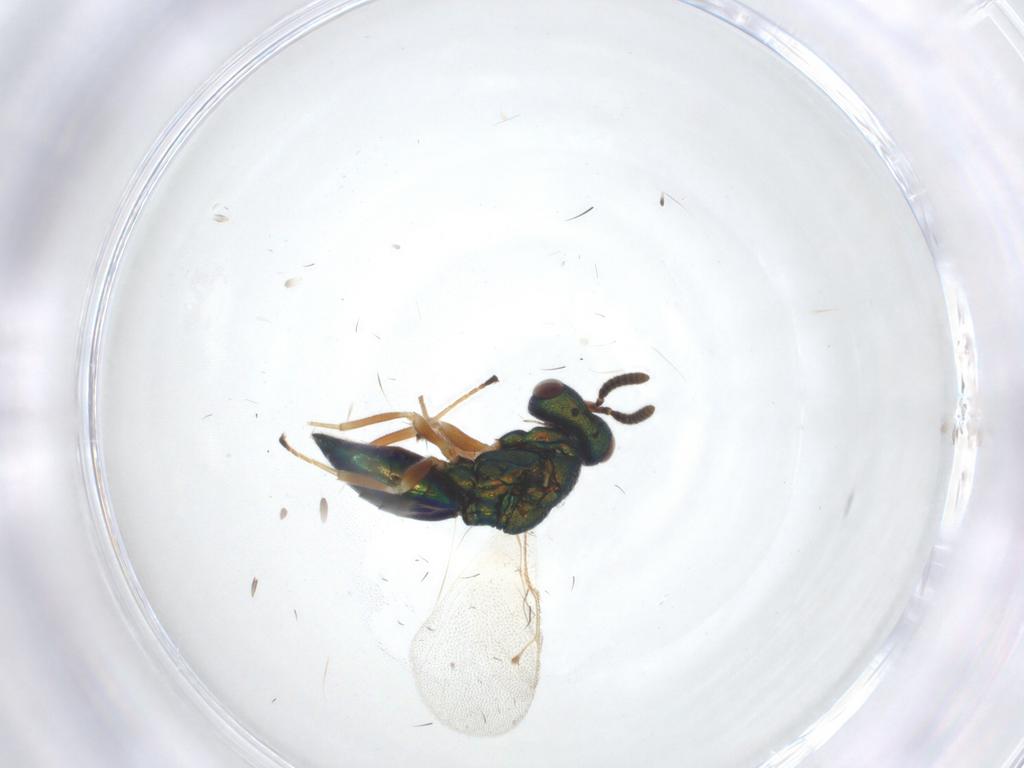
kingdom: Animalia
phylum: Arthropoda
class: Insecta
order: Hymenoptera
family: Pteromalidae
